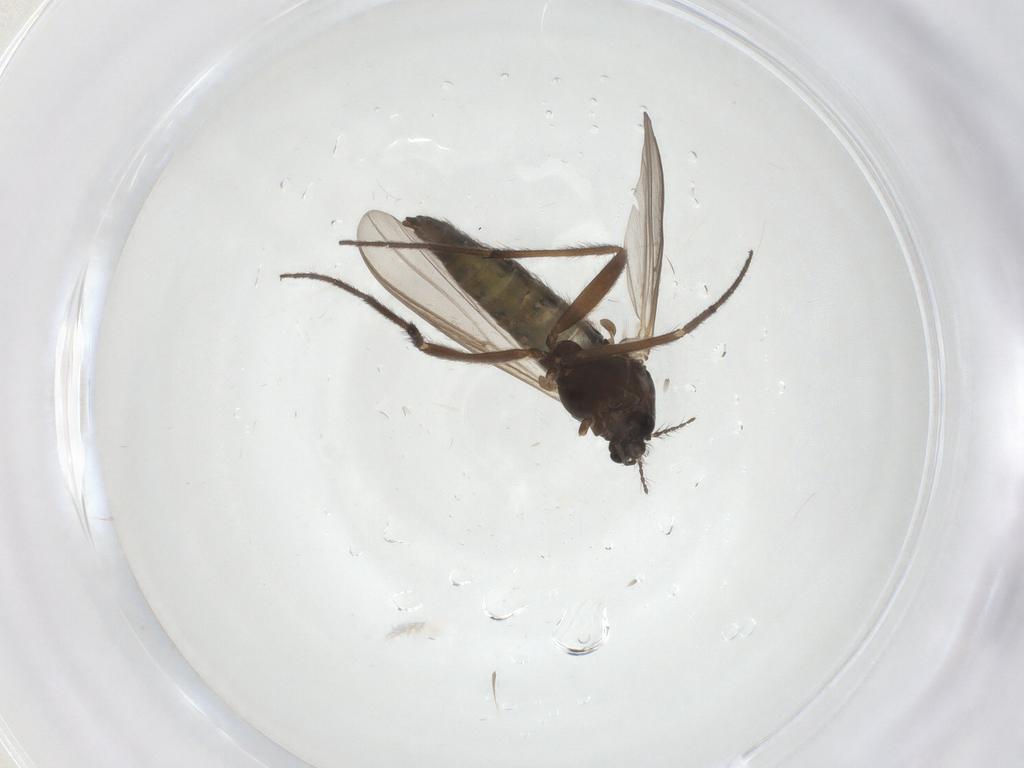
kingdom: Animalia
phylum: Arthropoda
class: Insecta
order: Diptera
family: Chironomidae
